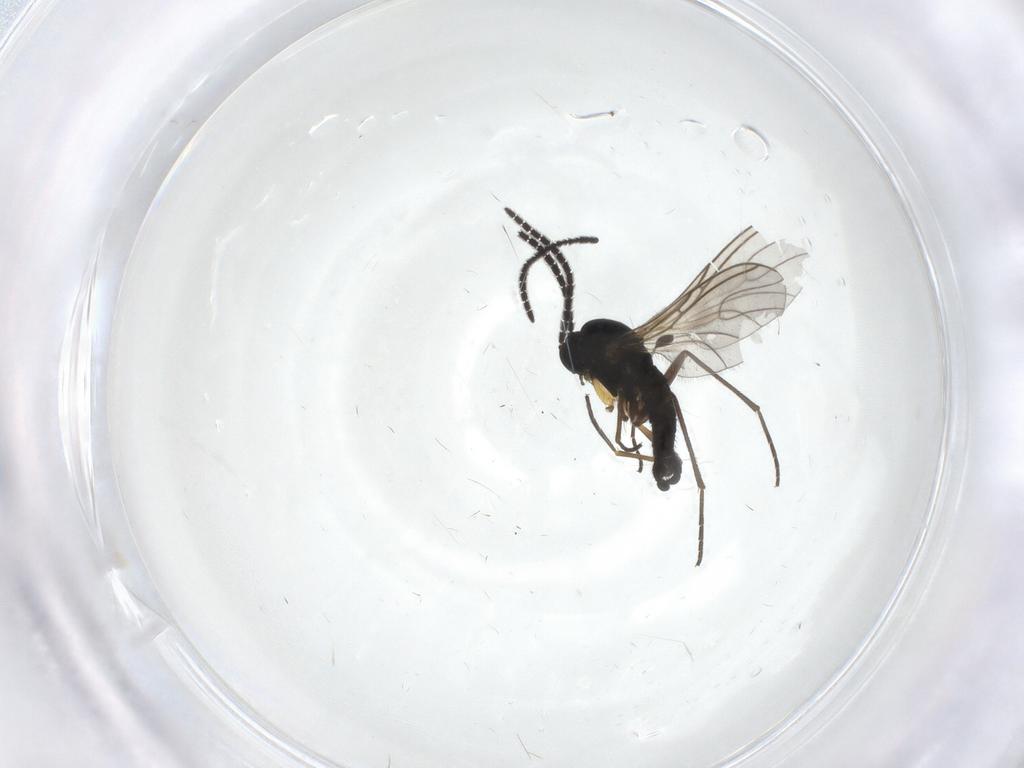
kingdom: Animalia
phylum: Arthropoda
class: Insecta
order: Diptera
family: Sciaridae
